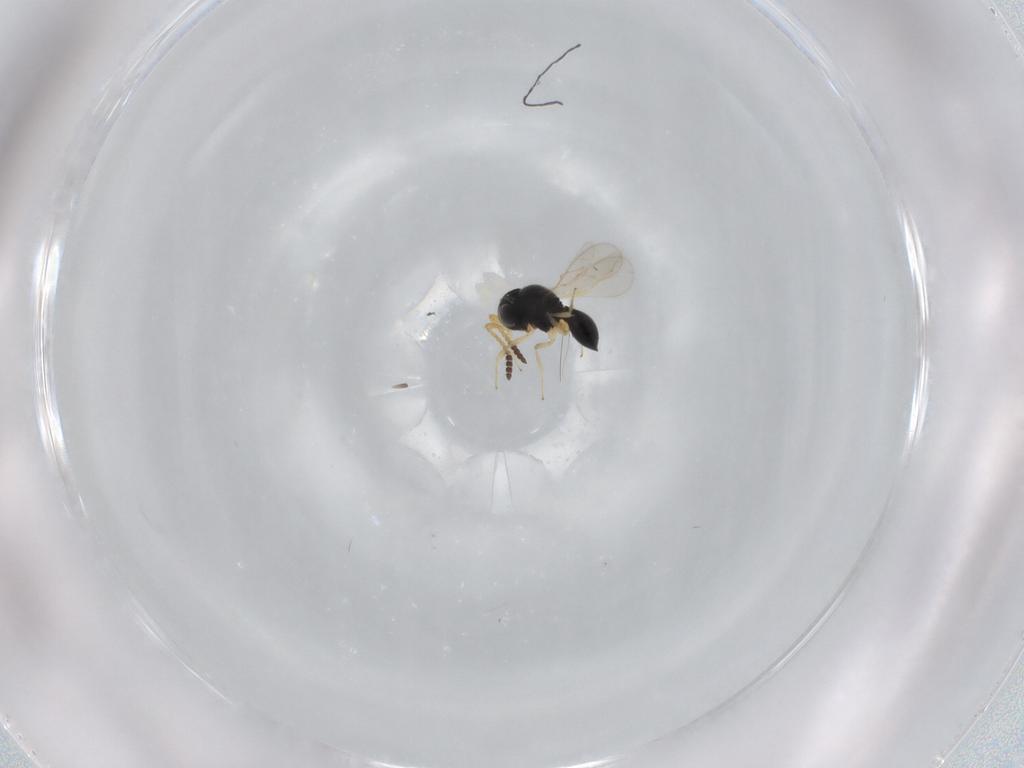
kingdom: Animalia
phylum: Arthropoda
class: Insecta
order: Hymenoptera
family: Scelionidae
